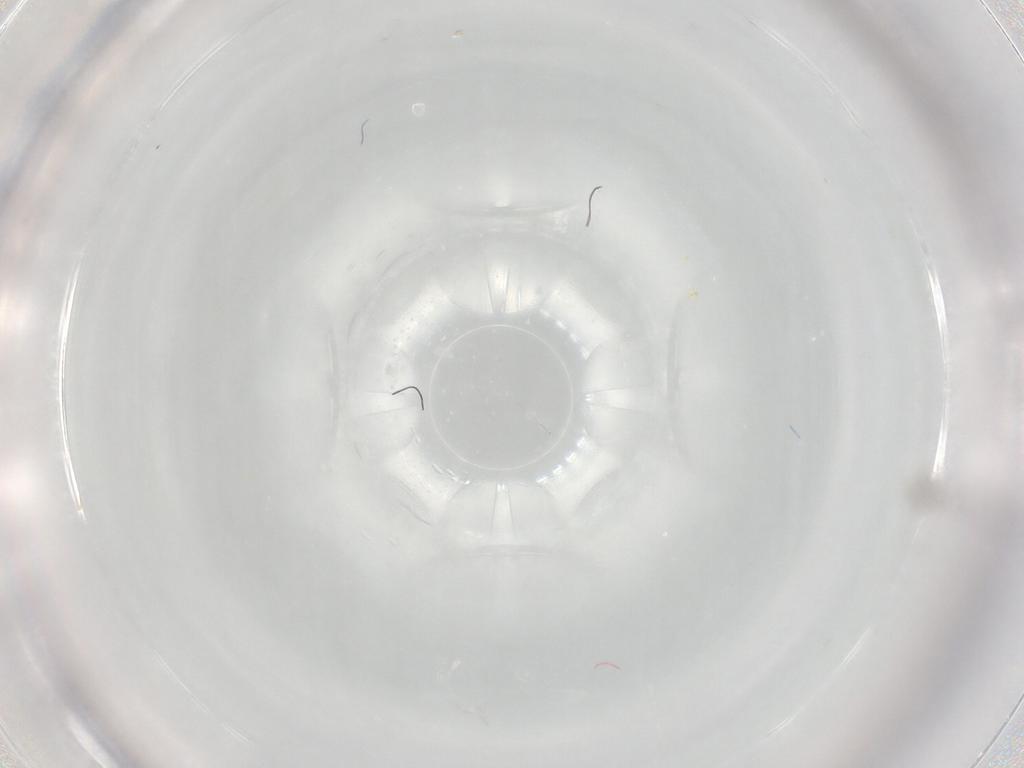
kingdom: Animalia
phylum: Arthropoda
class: Insecta
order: Hymenoptera
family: Mymaridae
